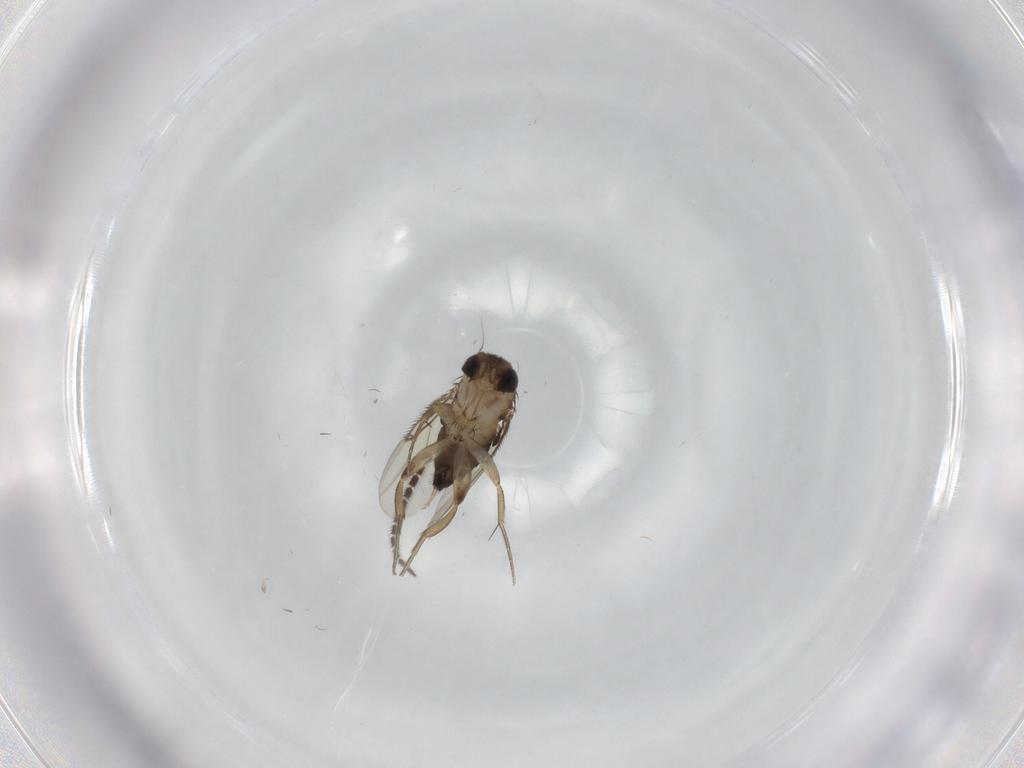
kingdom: Animalia
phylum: Arthropoda
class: Insecta
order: Diptera
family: Phoridae
